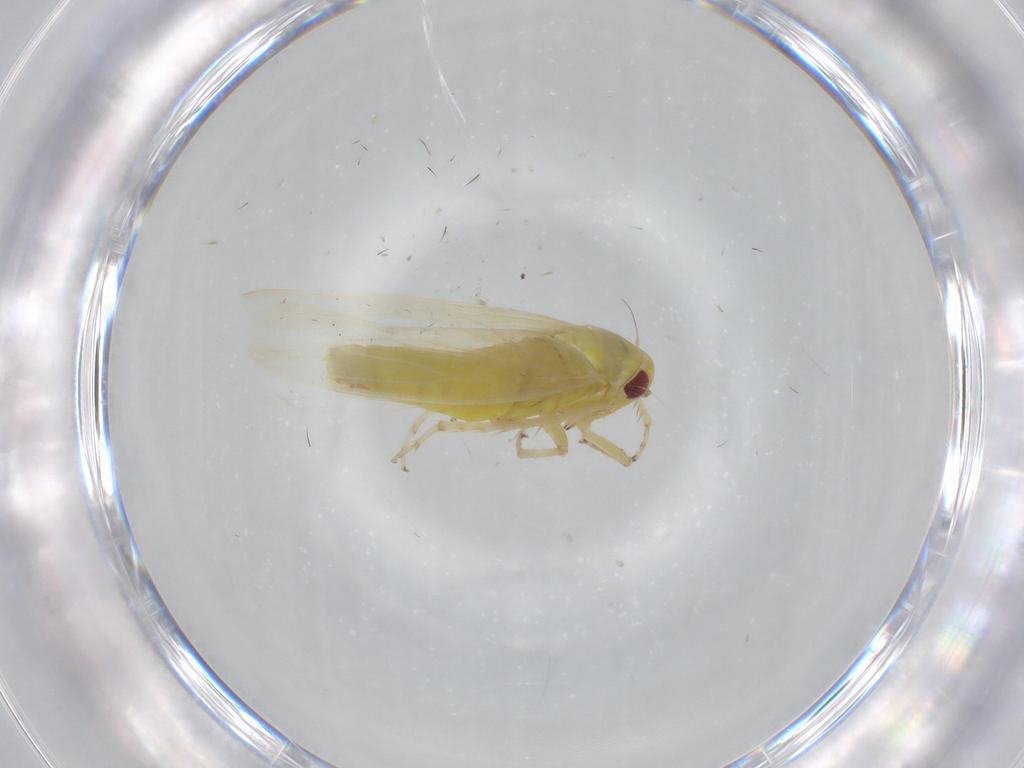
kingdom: Animalia
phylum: Arthropoda
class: Insecta
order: Hemiptera
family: Cicadellidae
